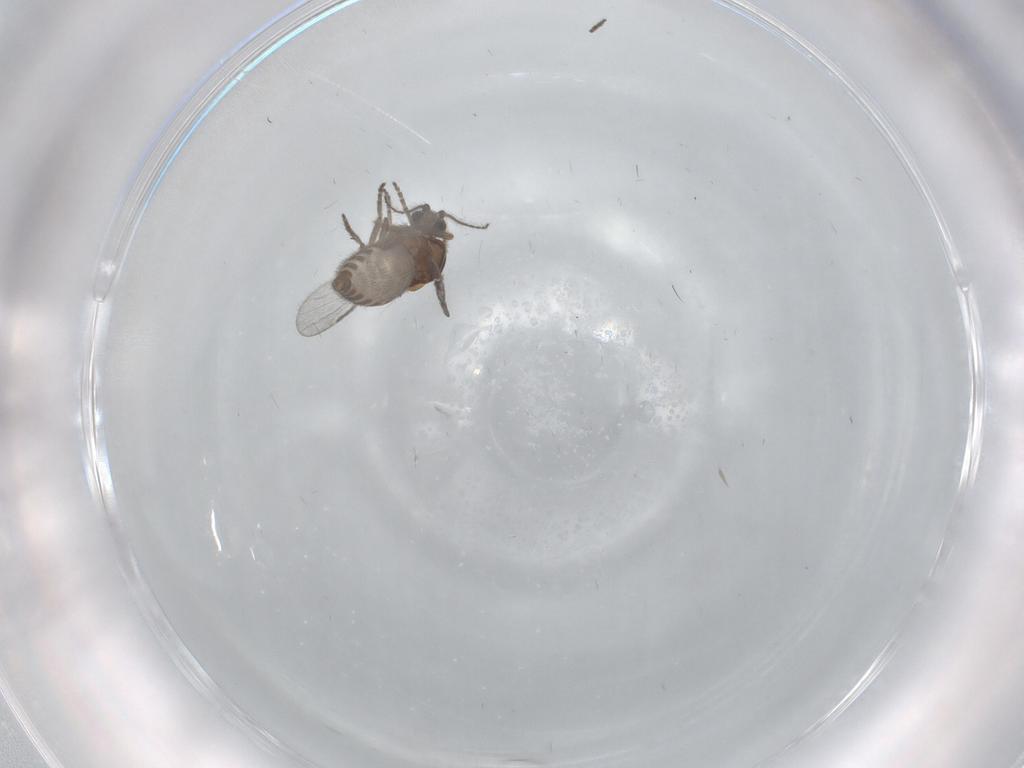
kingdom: Animalia
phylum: Arthropoda
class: Insecta
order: Diptera
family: Ceratopogonidae
